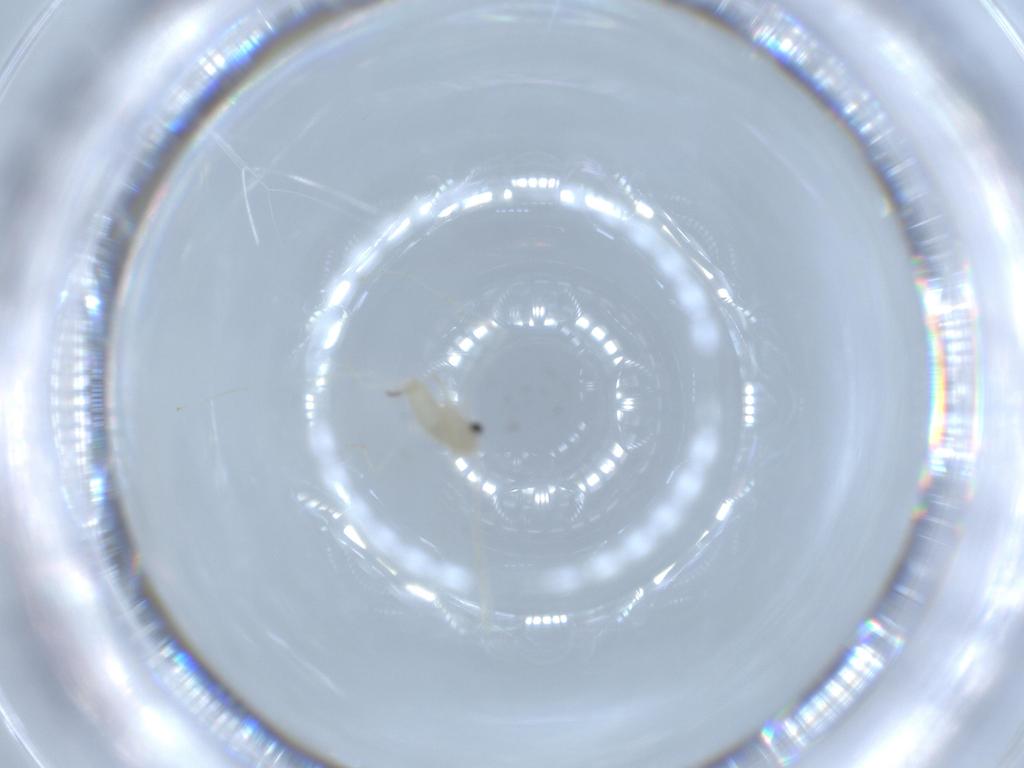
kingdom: Animalia
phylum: Arthropoda
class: Insecta
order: Diptera
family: Cecidomyiidae
